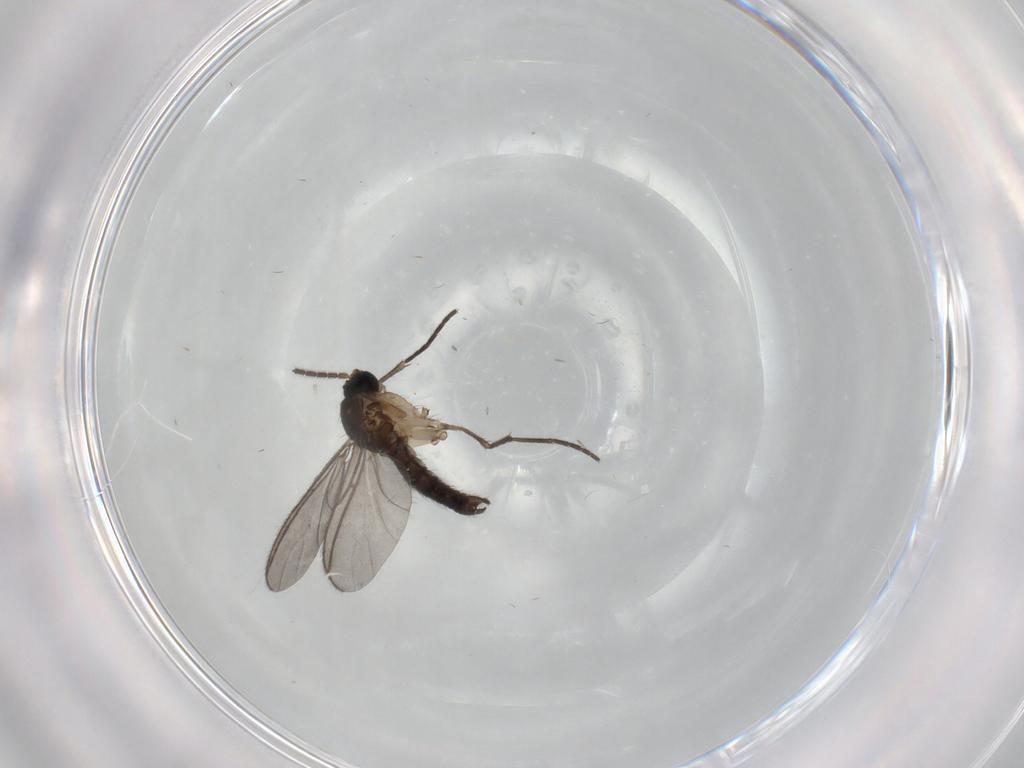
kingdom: Animalia
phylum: Arthropoda
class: Insecta
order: Diptera
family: Sciaridae
